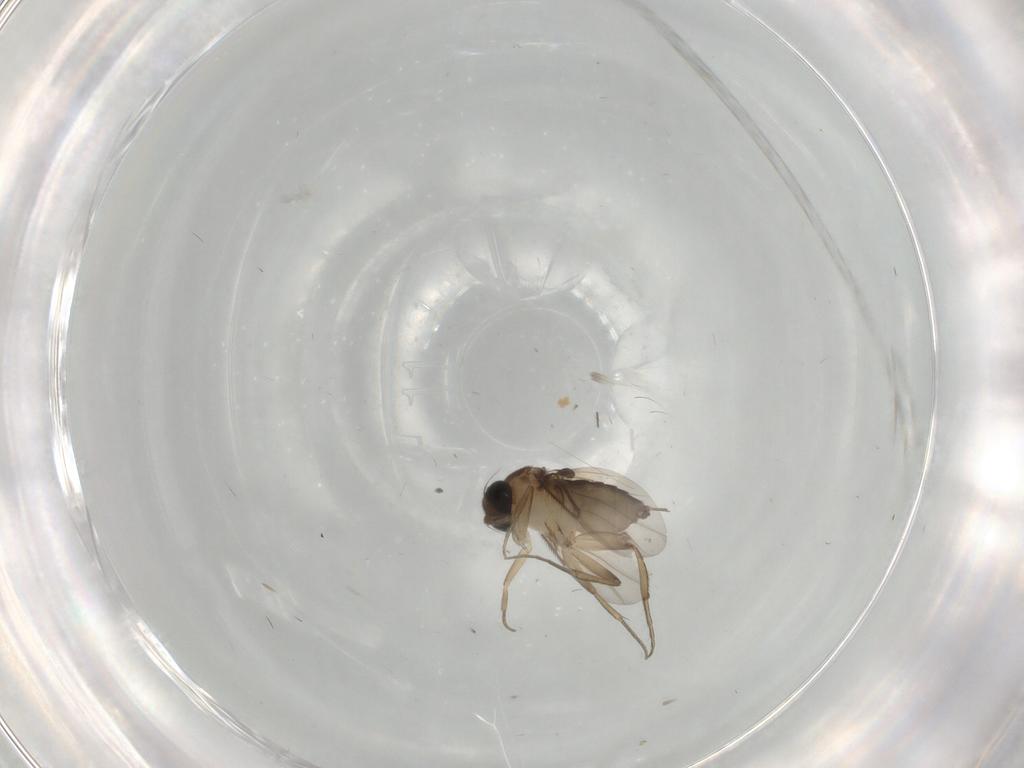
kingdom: Animalia
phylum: Arthropoda
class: Insecta
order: Diptera
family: Phoridae
